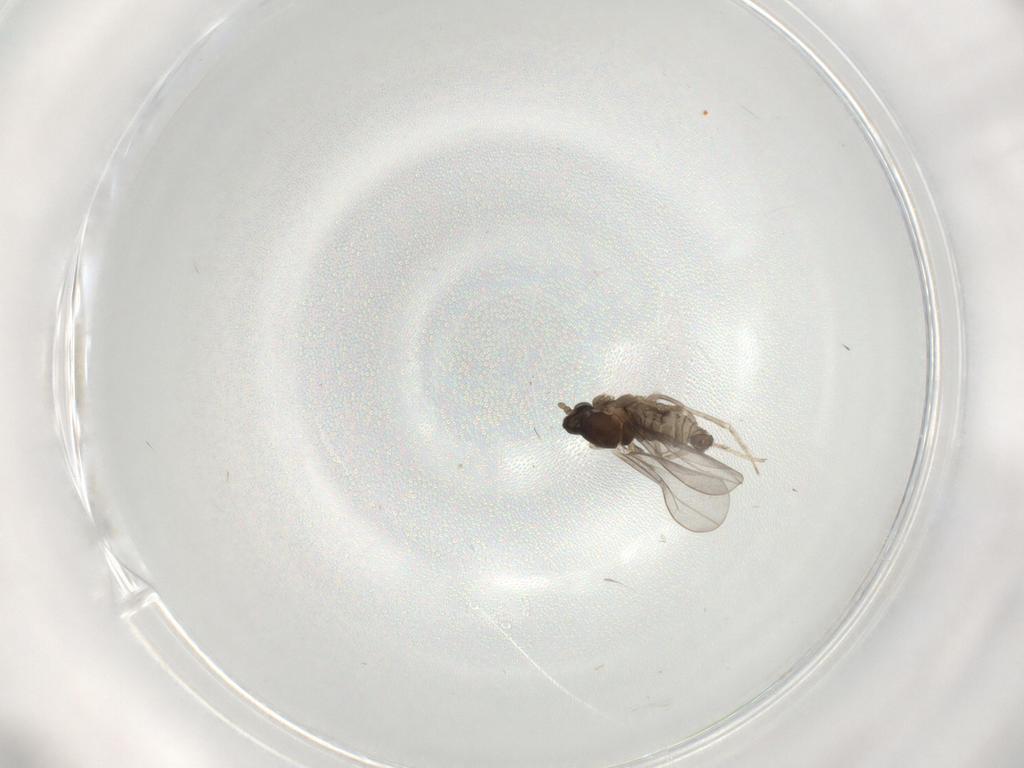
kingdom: Animalia
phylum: Arthropoda
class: Insecta
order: Diptera
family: Cecidomyiidae
